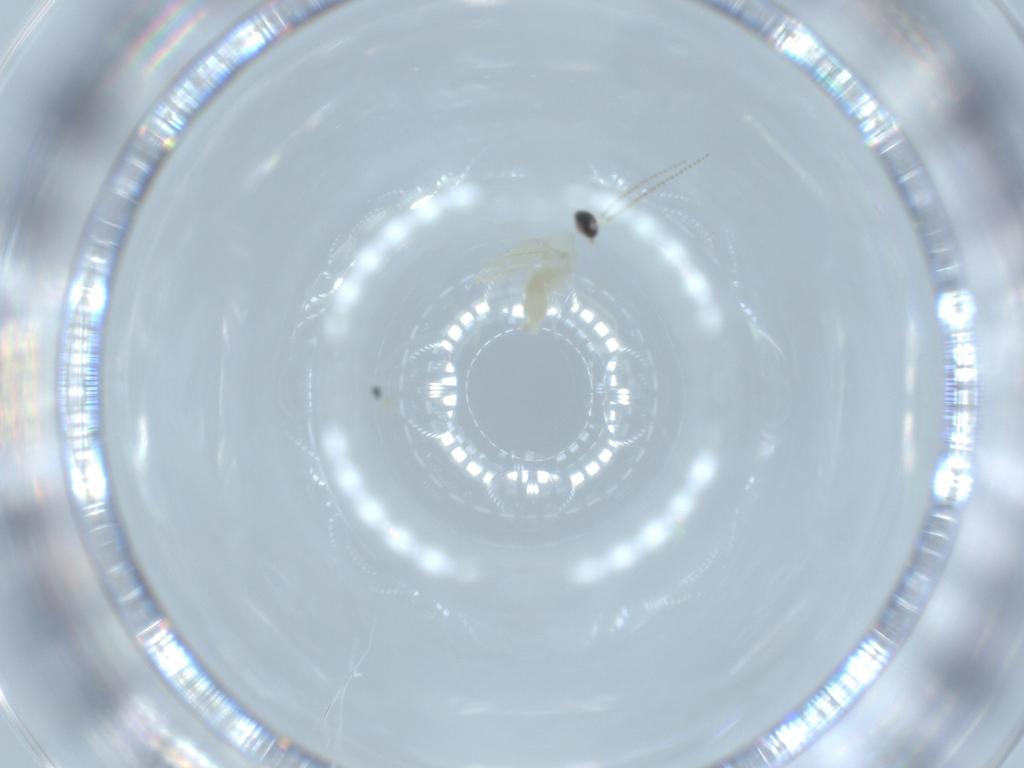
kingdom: Animalia
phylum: Arthropoda
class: Insecta
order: Diptera
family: Cecidomyiidae
